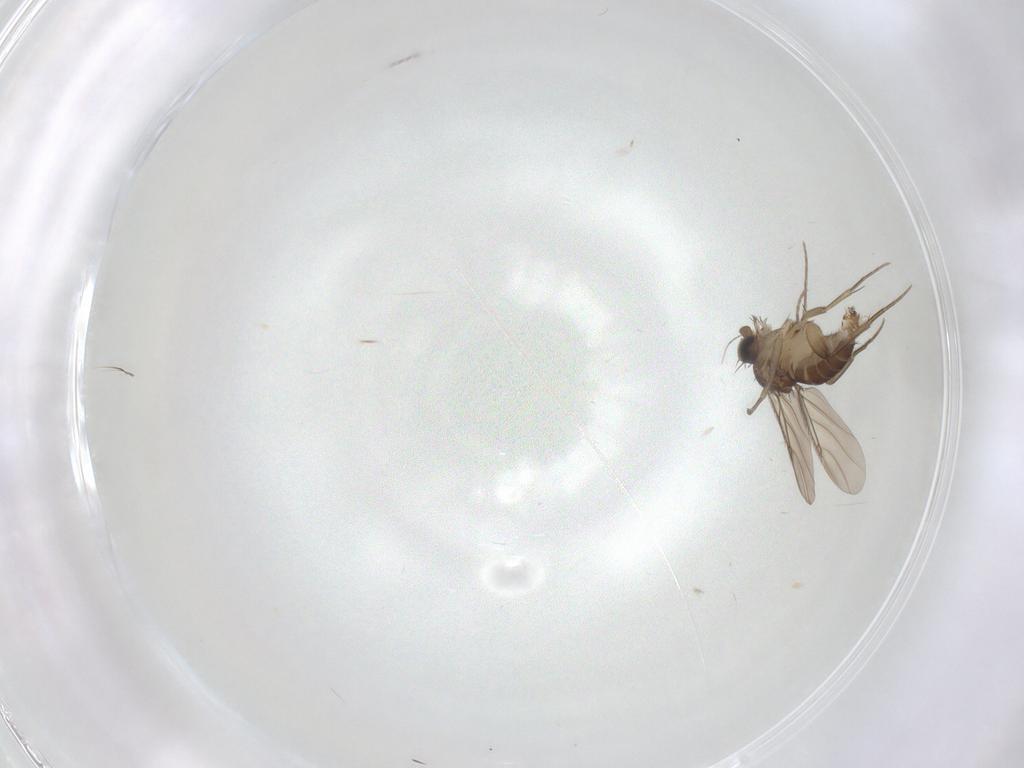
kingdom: Animalia
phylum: Arthropoda
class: Insecta
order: Diptera
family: Phoridae
